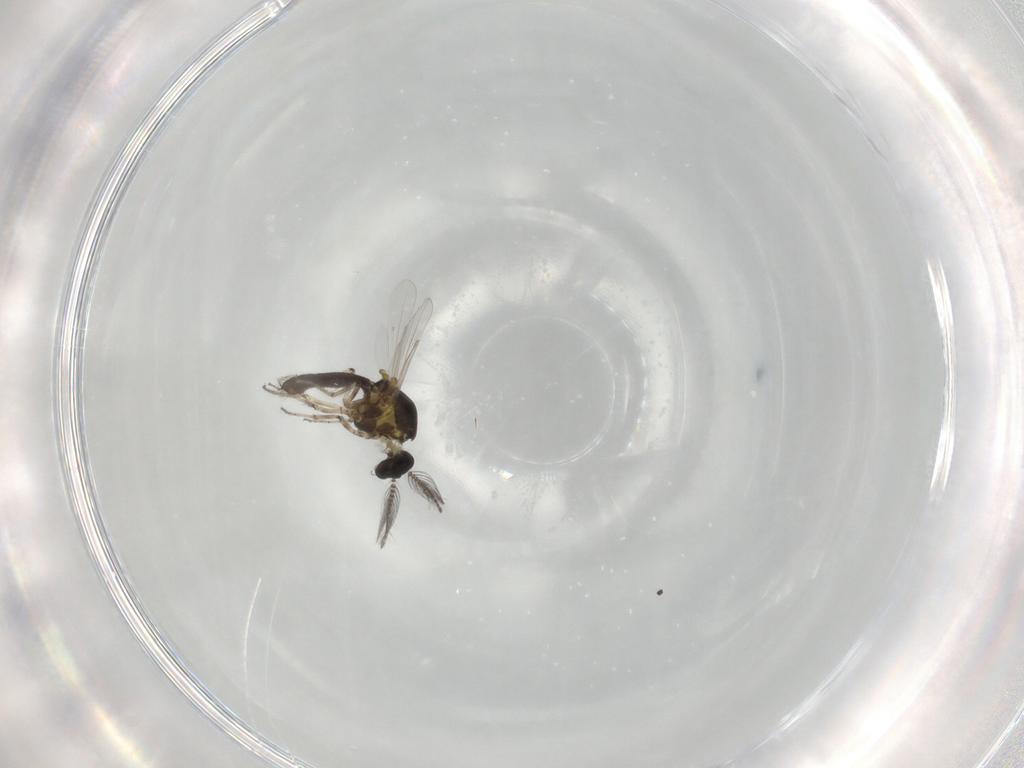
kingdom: Animalia
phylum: Arthropoda
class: Insecta
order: Diptera
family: Ceratopogonidae
